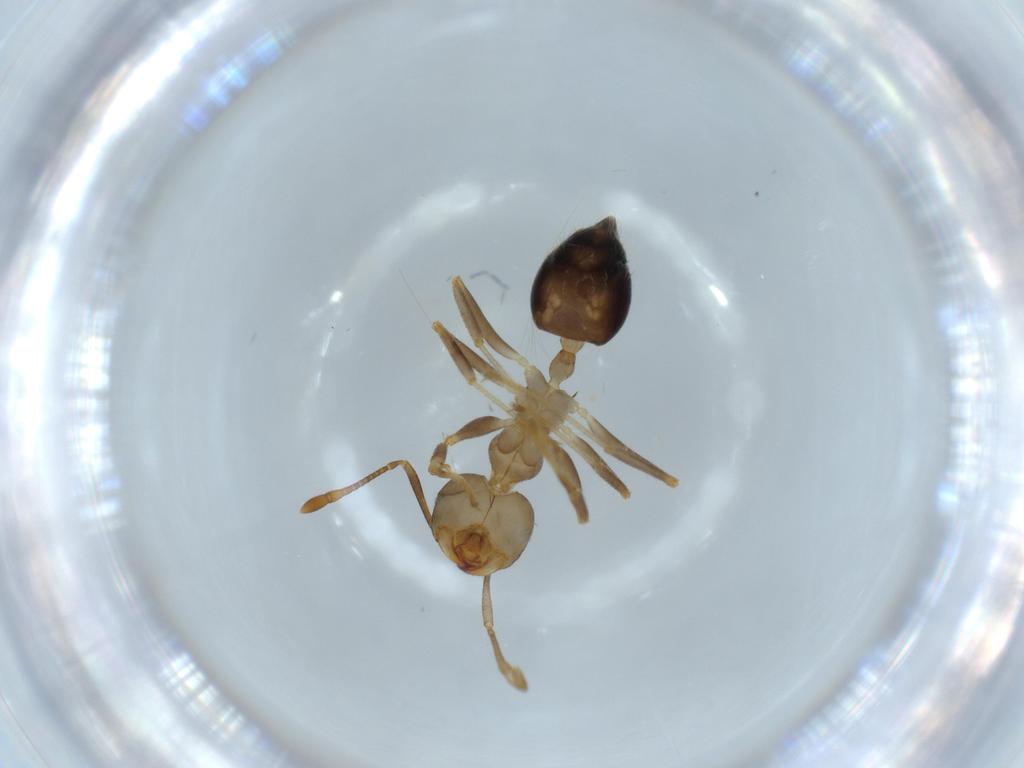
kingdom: Animalia
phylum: Arthropoda
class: Insecta
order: Hymenoptera
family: Formicidae
